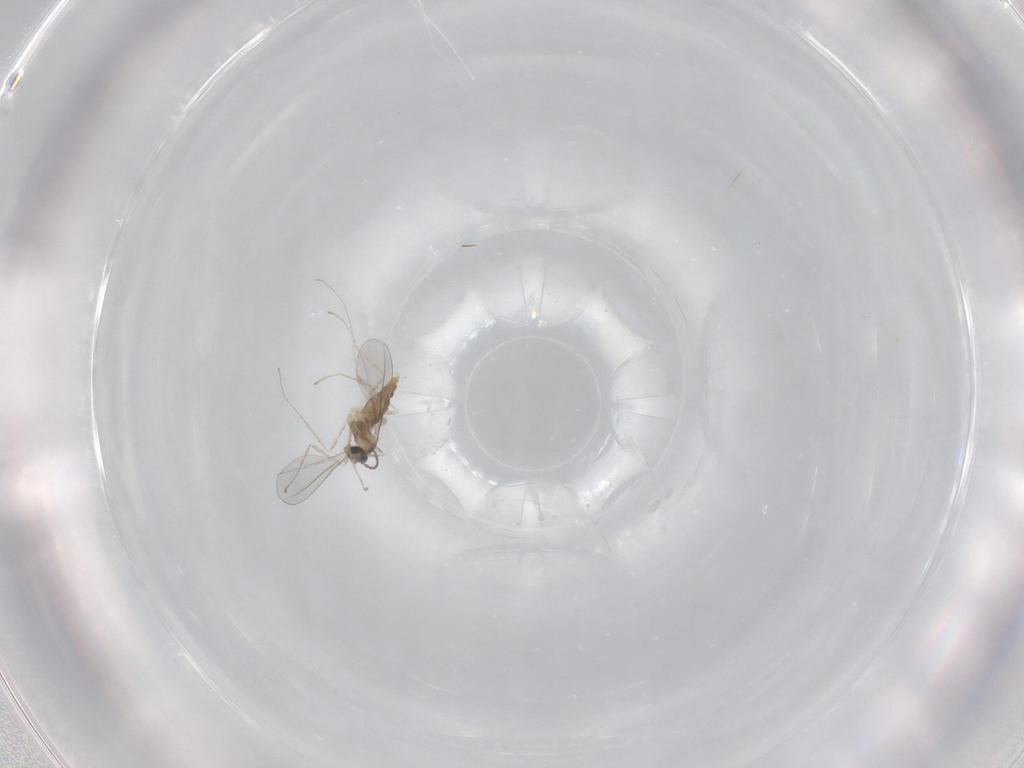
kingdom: Animalia
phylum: Arthropoda
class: Insecta
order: Diptera
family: Cecidomyiidae
